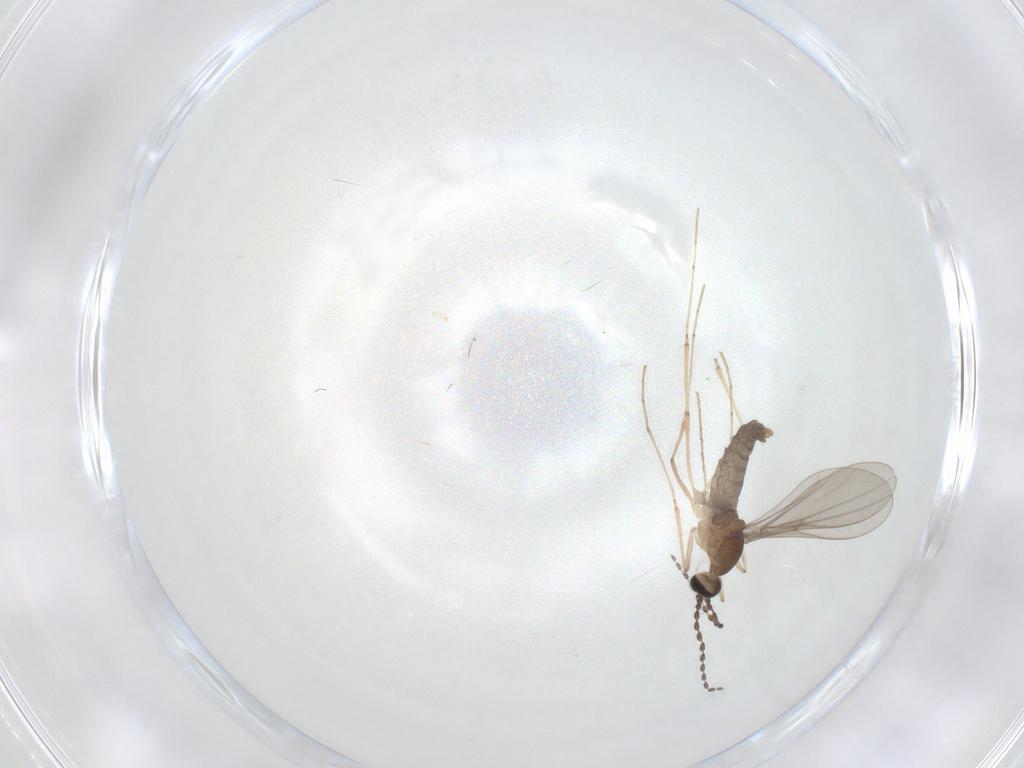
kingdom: Animalia
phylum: Arthropoda
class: Insecta
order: Diptera
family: Cecidomyiidae
